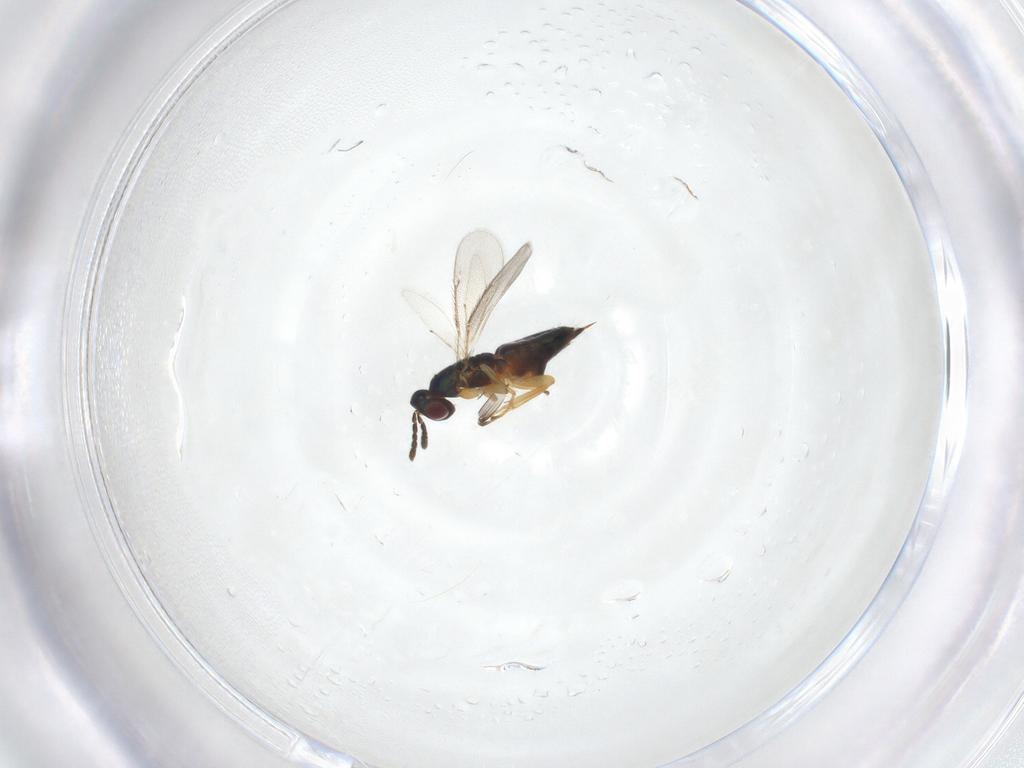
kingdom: Animalia
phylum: Arthropoda
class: Insecta
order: Hymenoptera
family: Eulophidae
